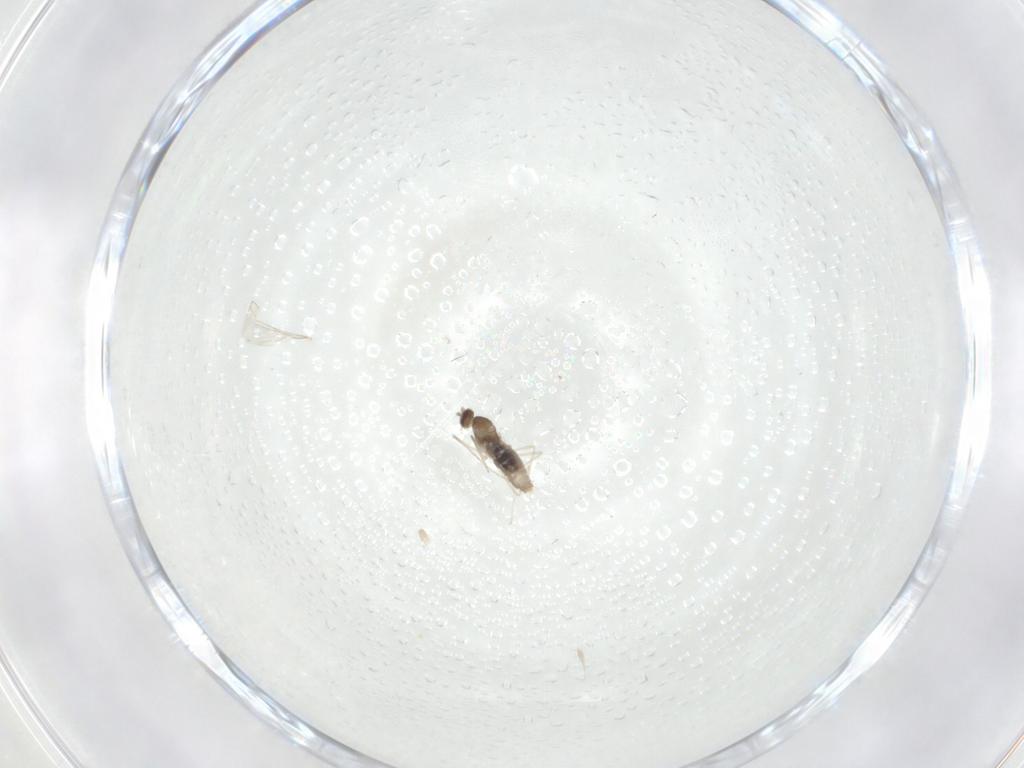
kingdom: Animalia
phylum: Arthropoda
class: Insecta
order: Diptera
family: Cecidomyiidae
